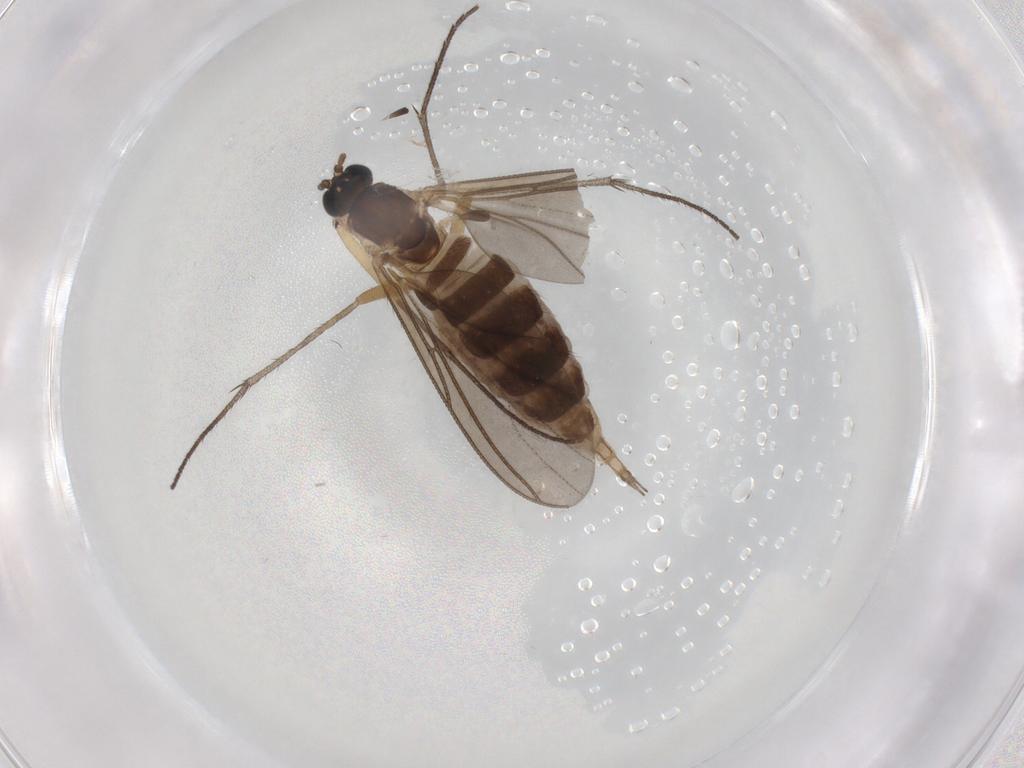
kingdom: Animalia
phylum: Arthropoda
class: Insecta
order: Diptera
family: Sciaridae
